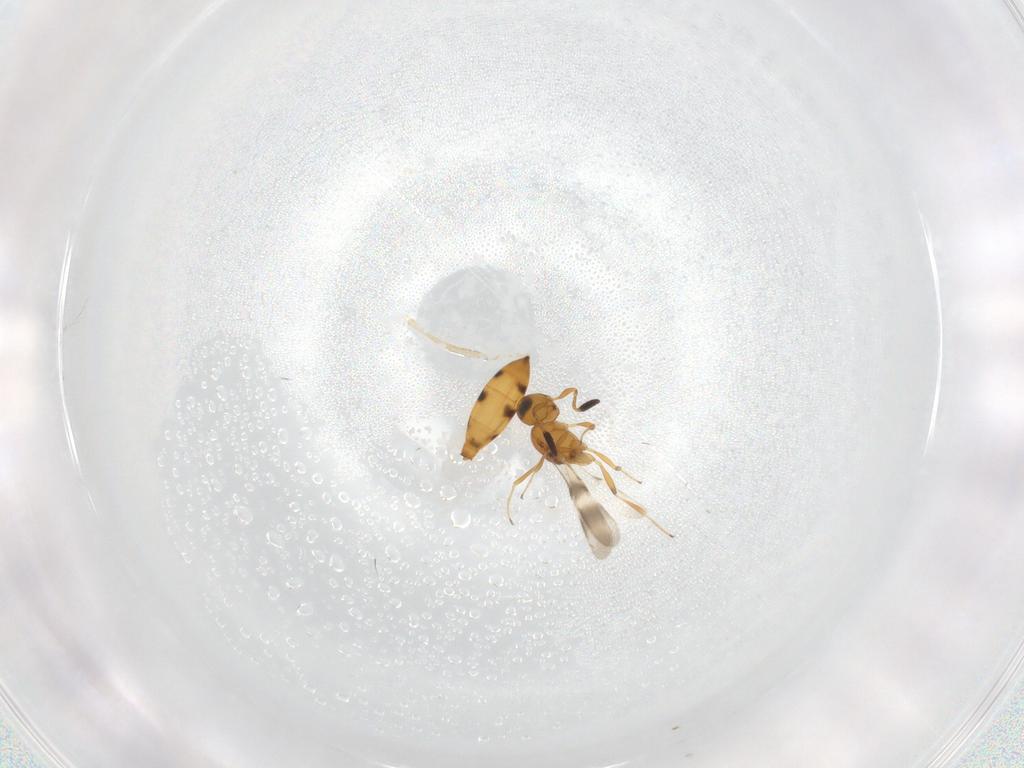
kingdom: Animalia
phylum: Arthropoda
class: Insecta
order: Hymenoptera
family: Scelionidae
